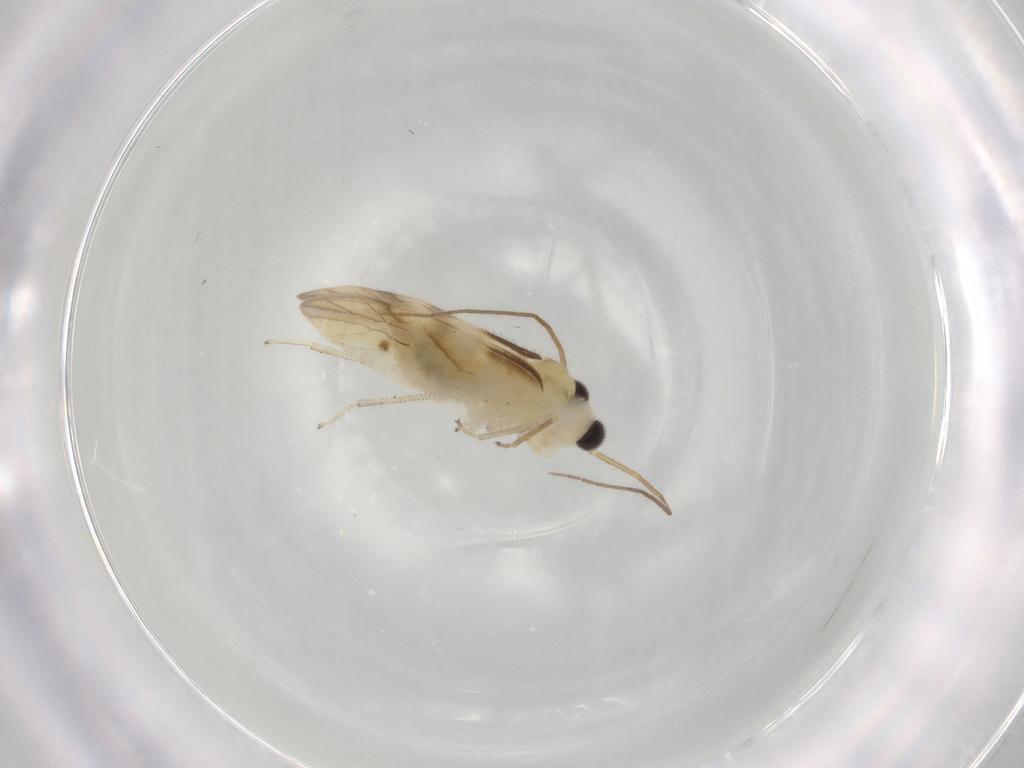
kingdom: Animalia
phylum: Arthropoda
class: Insecta
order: Psocodea
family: Caeciliusidae
